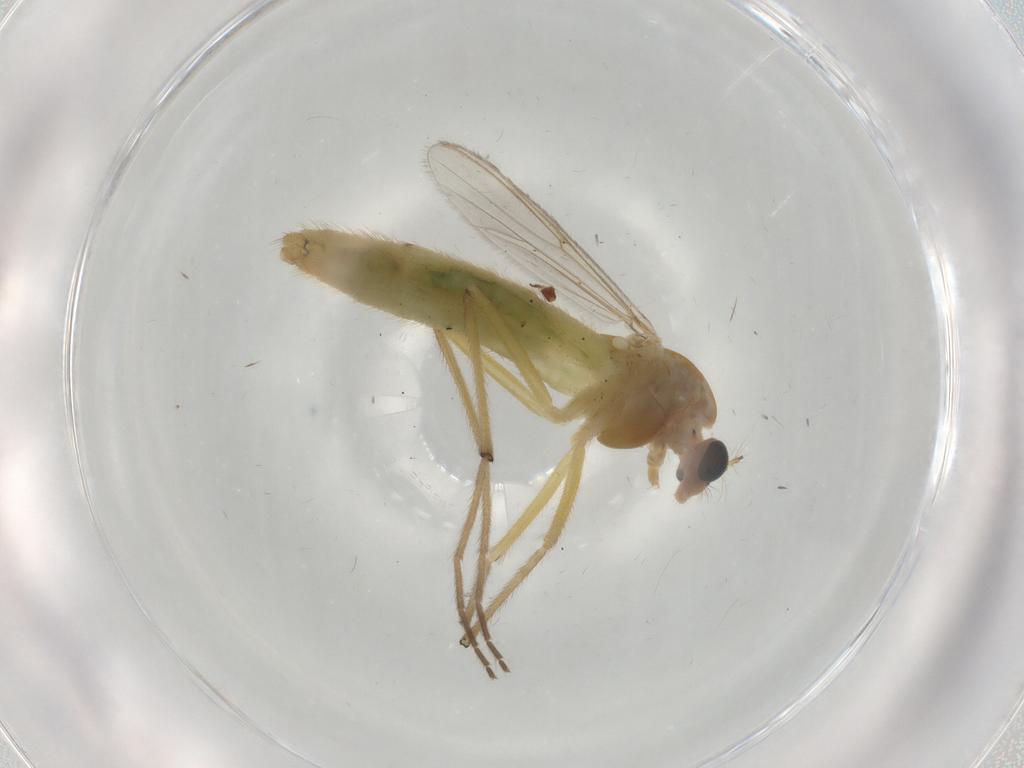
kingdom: Animalia
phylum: Arthropoda
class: Insecta
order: Diptera
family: Chironomidae
